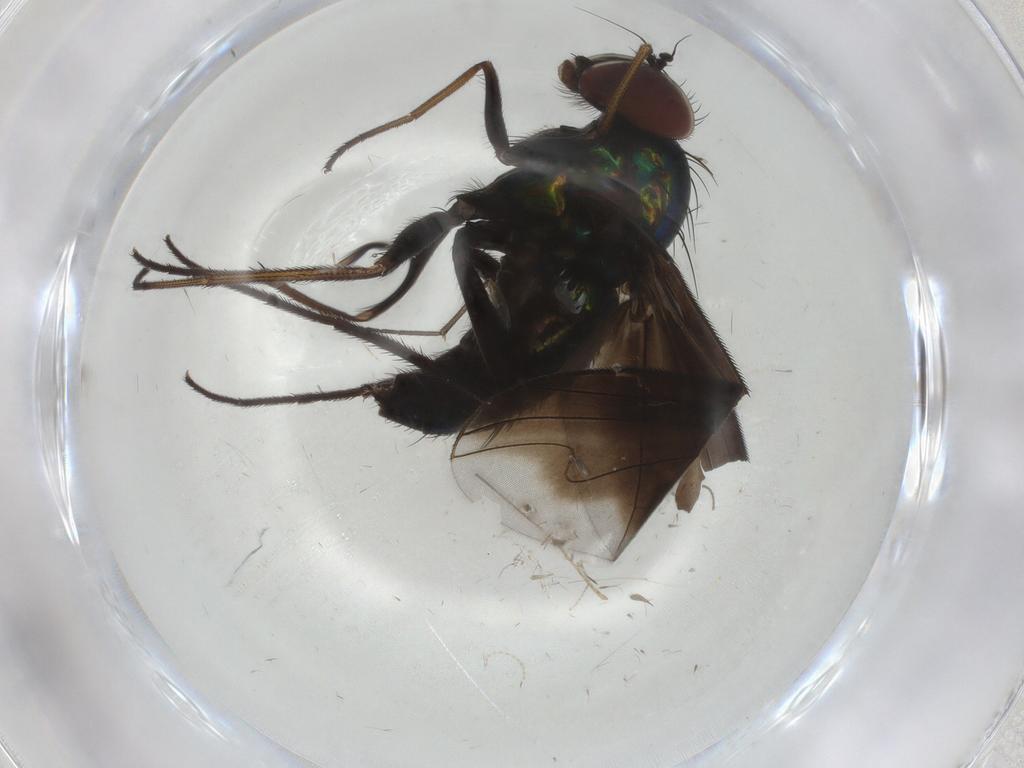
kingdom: Animalia
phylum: Arthropoda
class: Insecta
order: Diptera
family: Dolichopodidae
